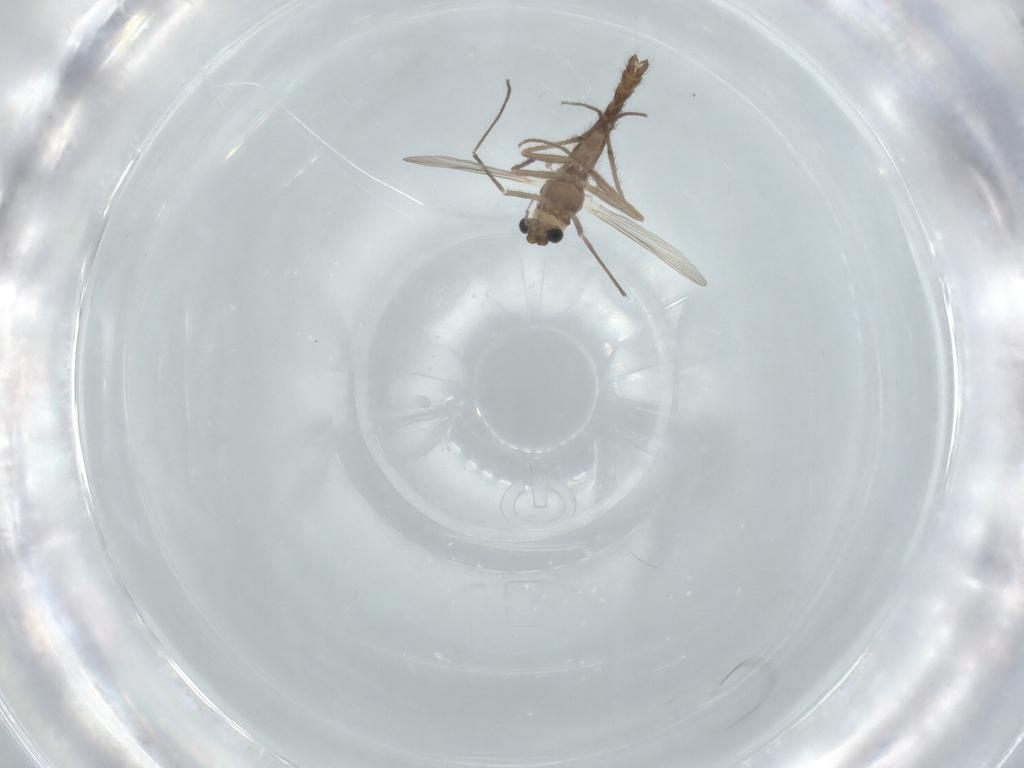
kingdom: Animalia
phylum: Arthropoda
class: Insecta
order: Diptera
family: Chironomidae
